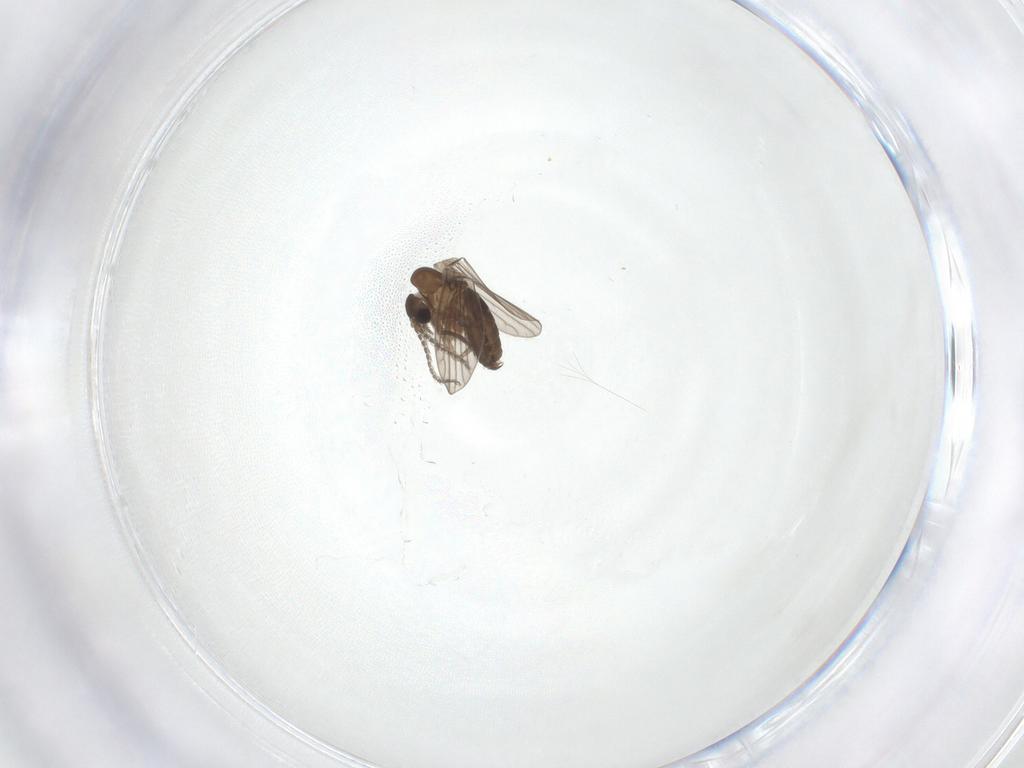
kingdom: Animalia
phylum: Arthropoda
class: Insecta
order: Diptera
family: Psychodidae
